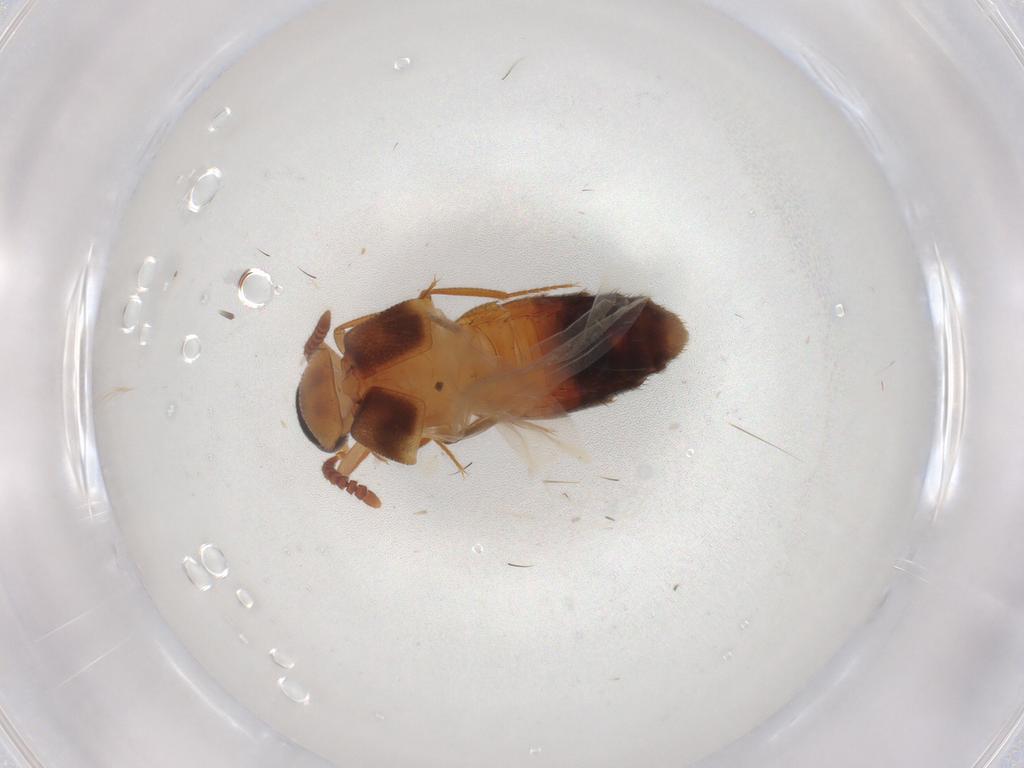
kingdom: Animalia
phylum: Arthropoda
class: Insecta
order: Coleoptera
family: Staphylinidae
